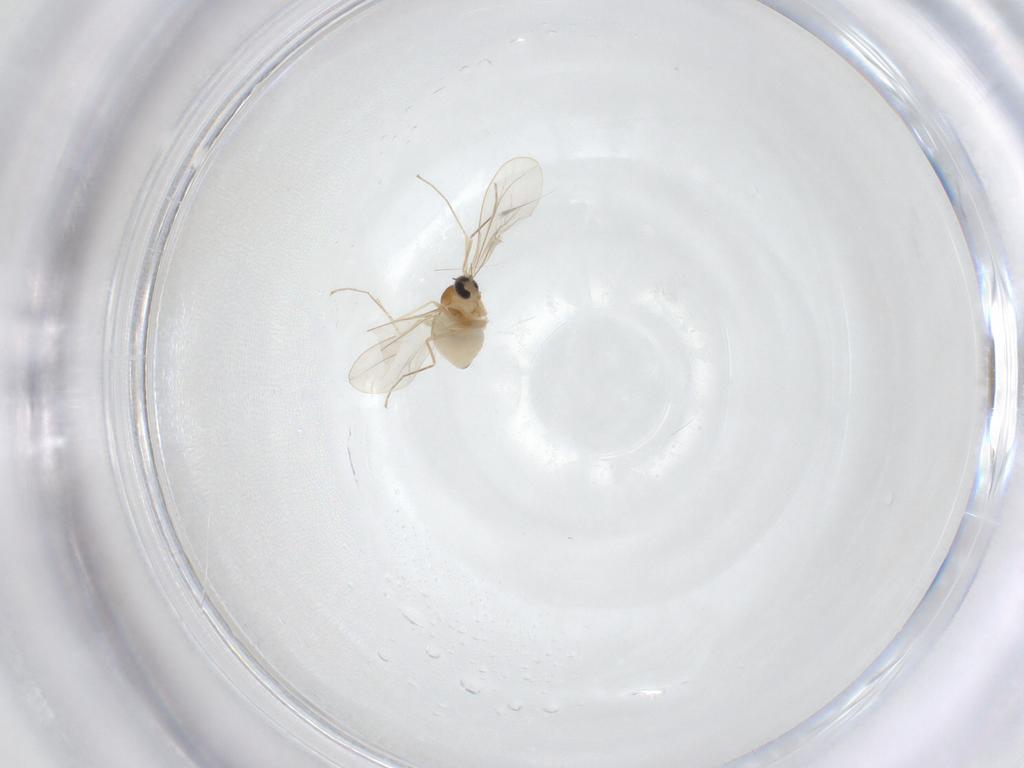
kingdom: Animalia
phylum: Arthropoda
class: Insecta
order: Diptera
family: Cecidomyiidae
